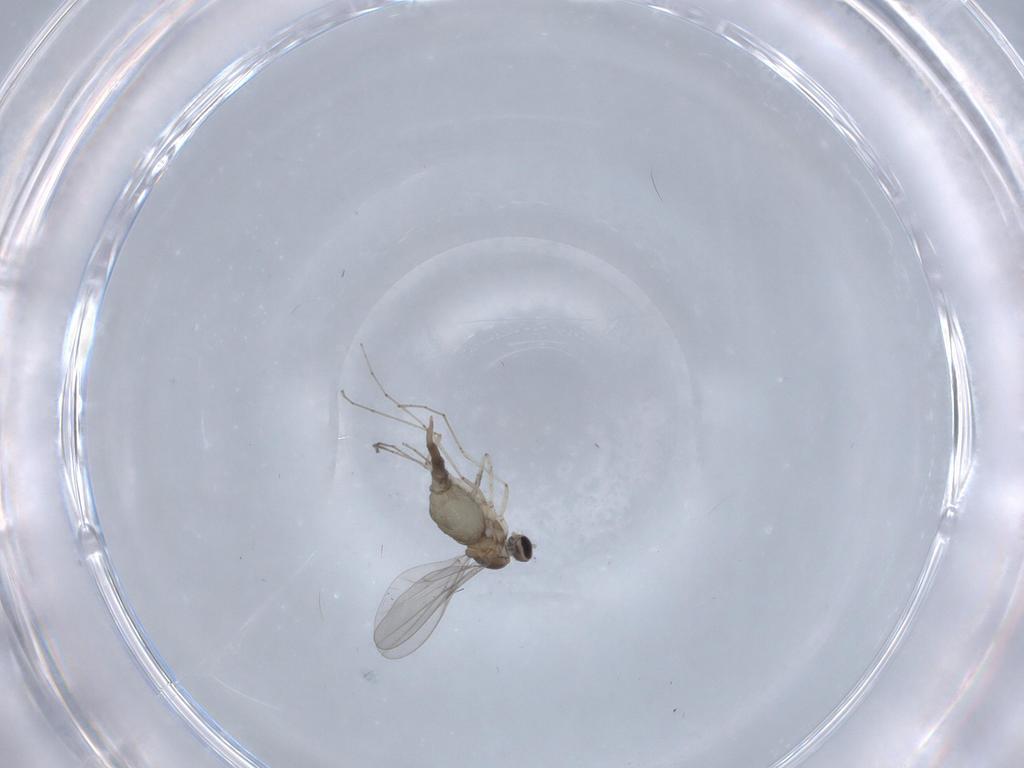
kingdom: Animalia
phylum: Arthropoda
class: Insecta
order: Diptera
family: Cecidomyiidae
